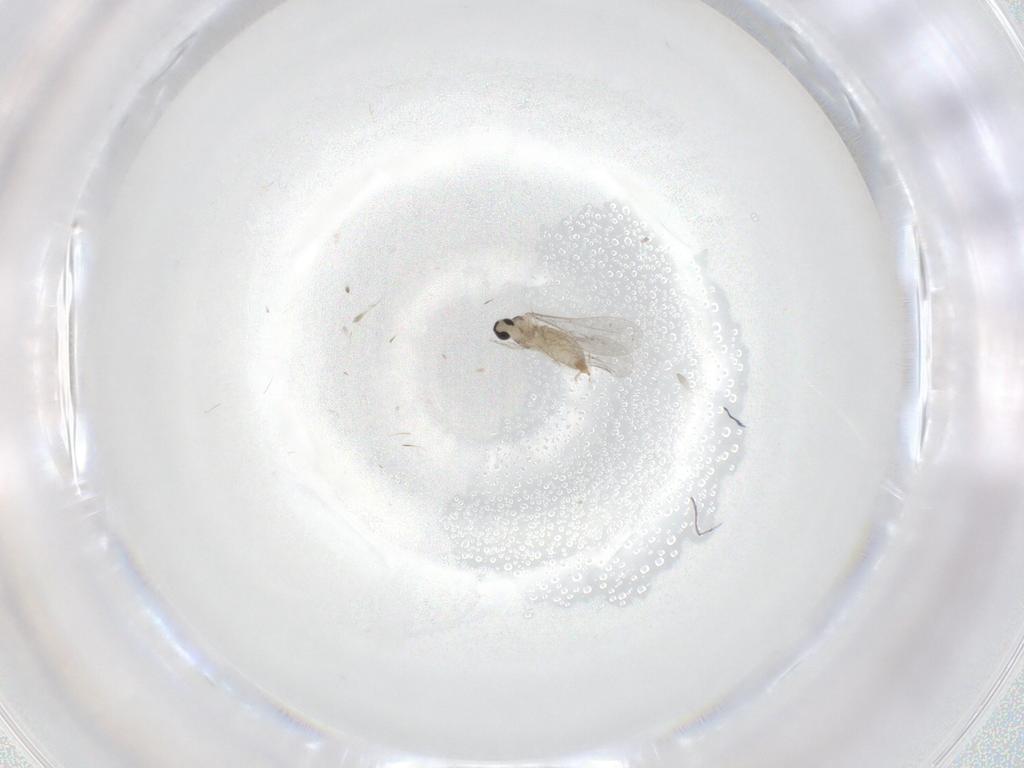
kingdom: Animalia
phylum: Arthropoda
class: Insecta
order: Diptera
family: Cecidomyiidae
